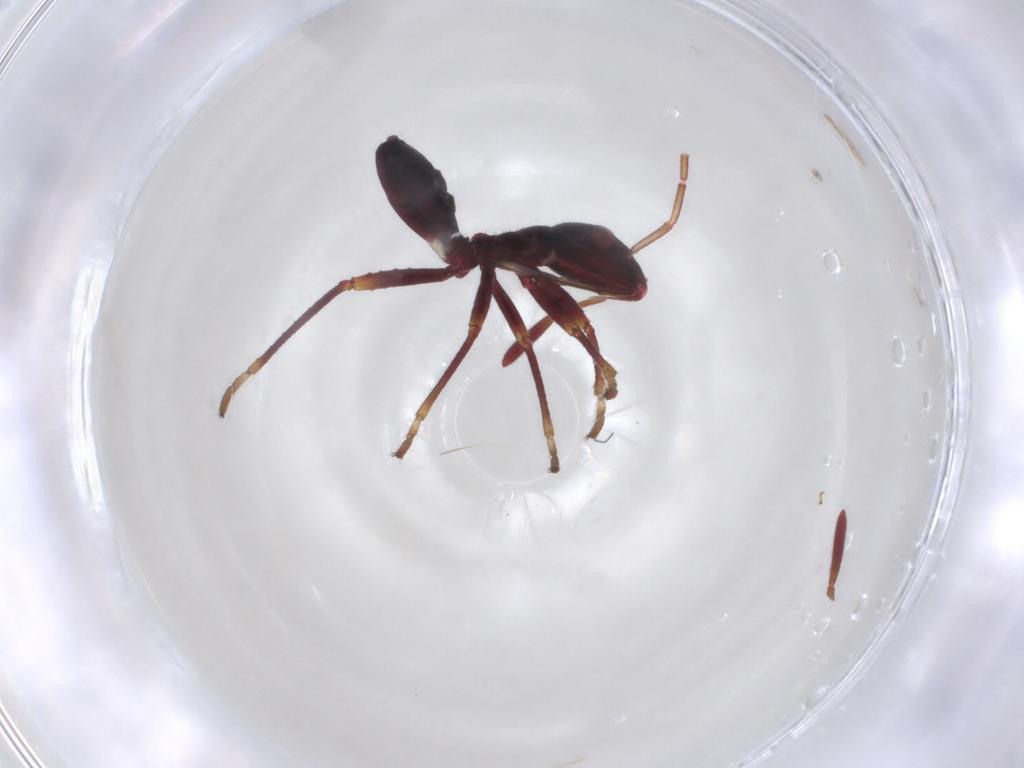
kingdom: Animalia
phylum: Arthropoda
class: Insecta
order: Hemiptera
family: Alydidae
